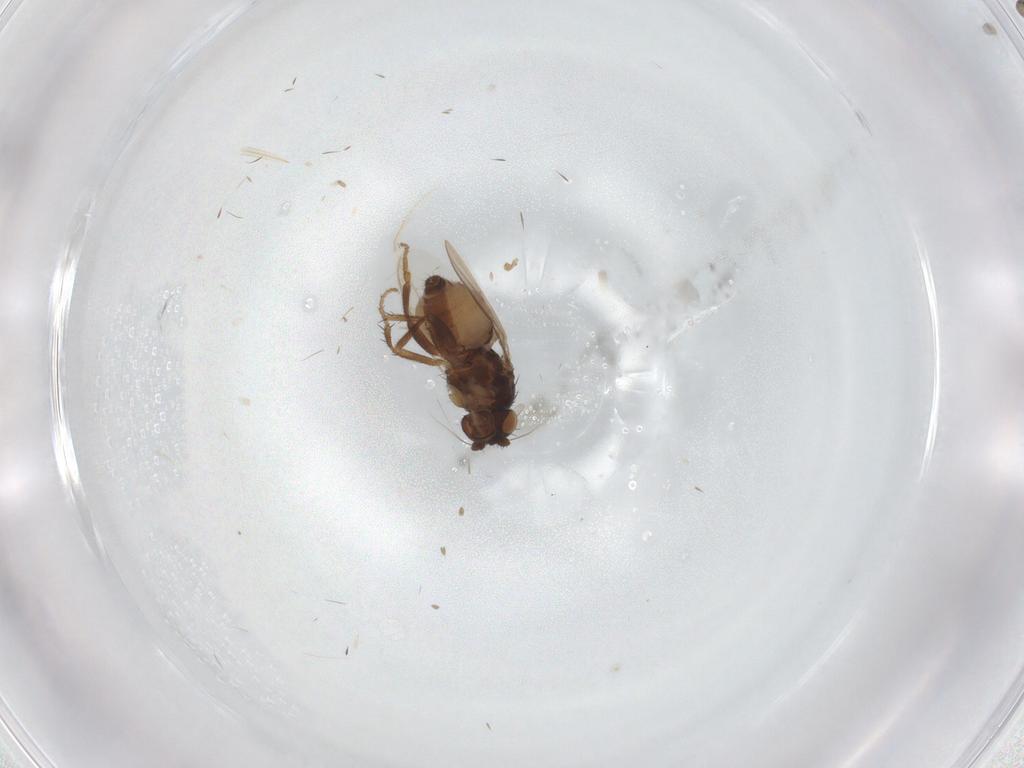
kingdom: Animalia
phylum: Arthropoda
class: Insecta
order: Diptera
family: Sphaeroceridae
